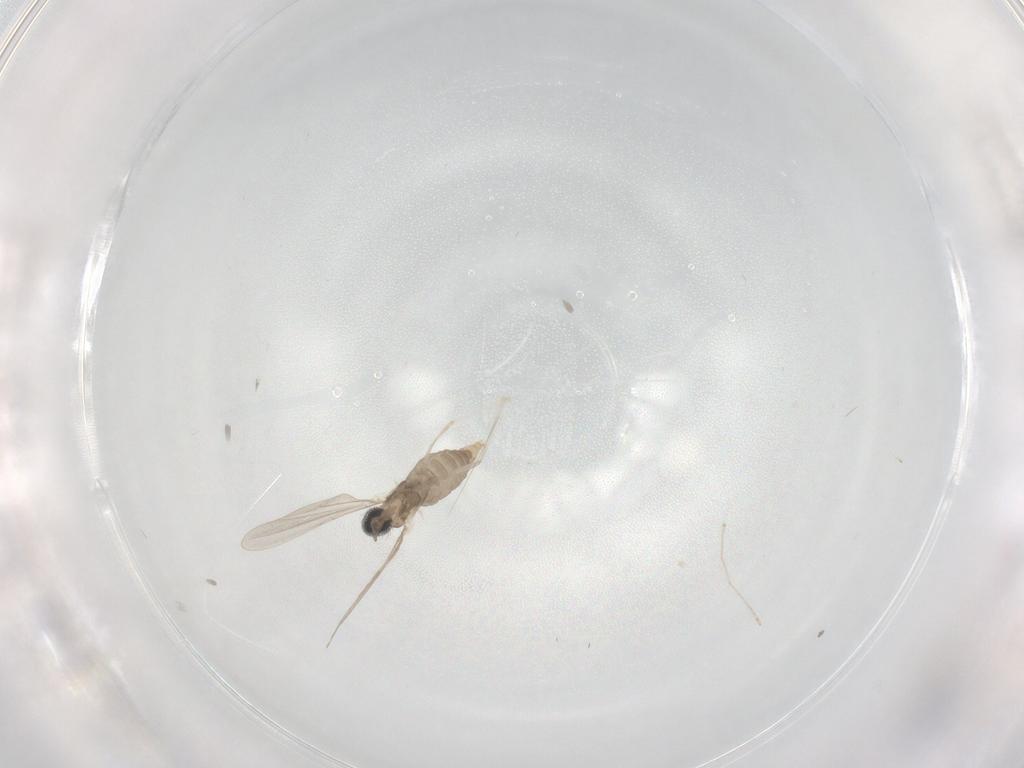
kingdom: Animalia
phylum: Arthropoda
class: Insecta
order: Diptera
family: Cecidomyiidae
